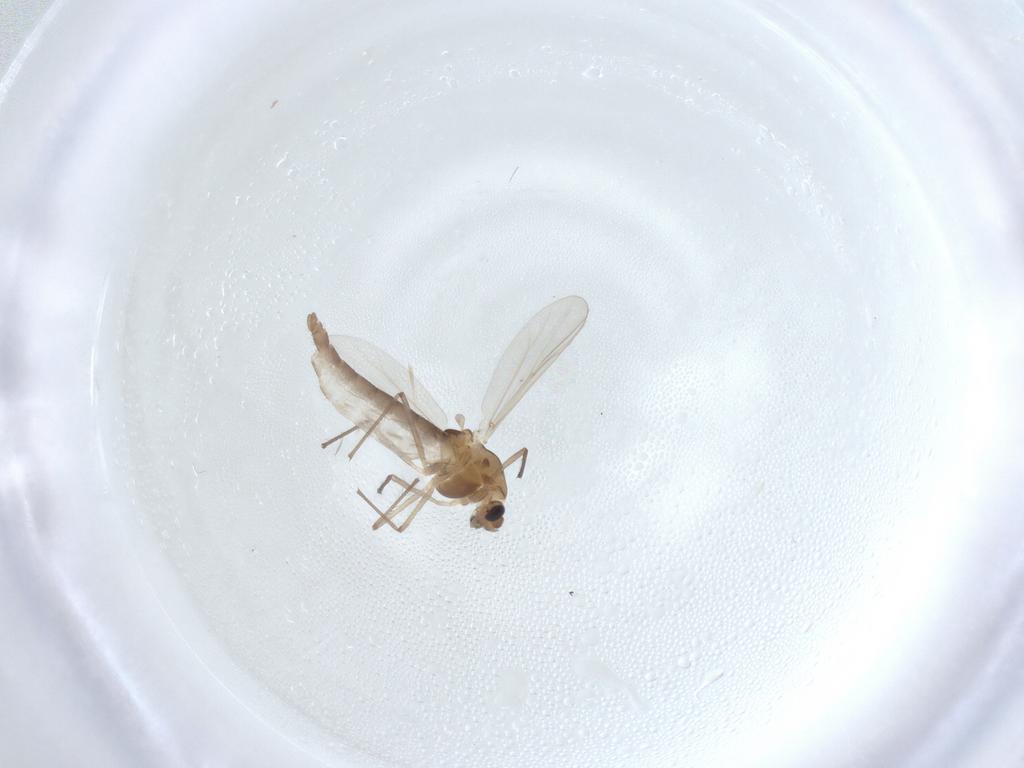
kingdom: Animalia
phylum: Arthropoda
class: Insecta
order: Diptera
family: Chironomidae
